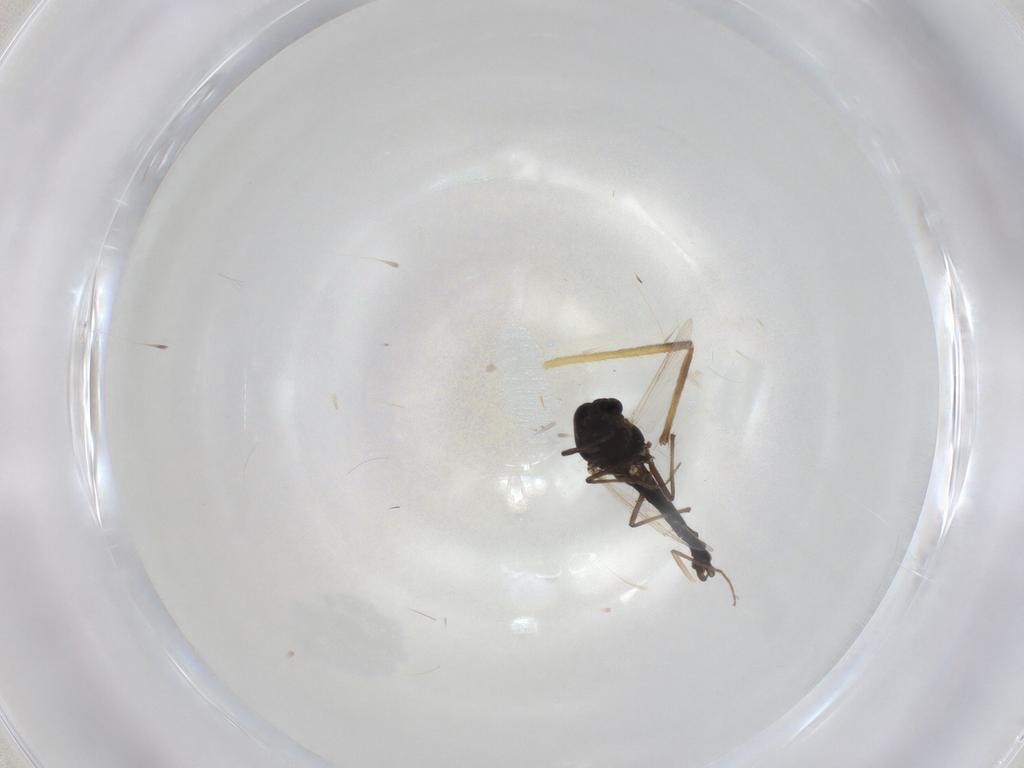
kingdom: Animalia
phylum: Arthropoda
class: Insecta
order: Diptera
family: Chironomidae
